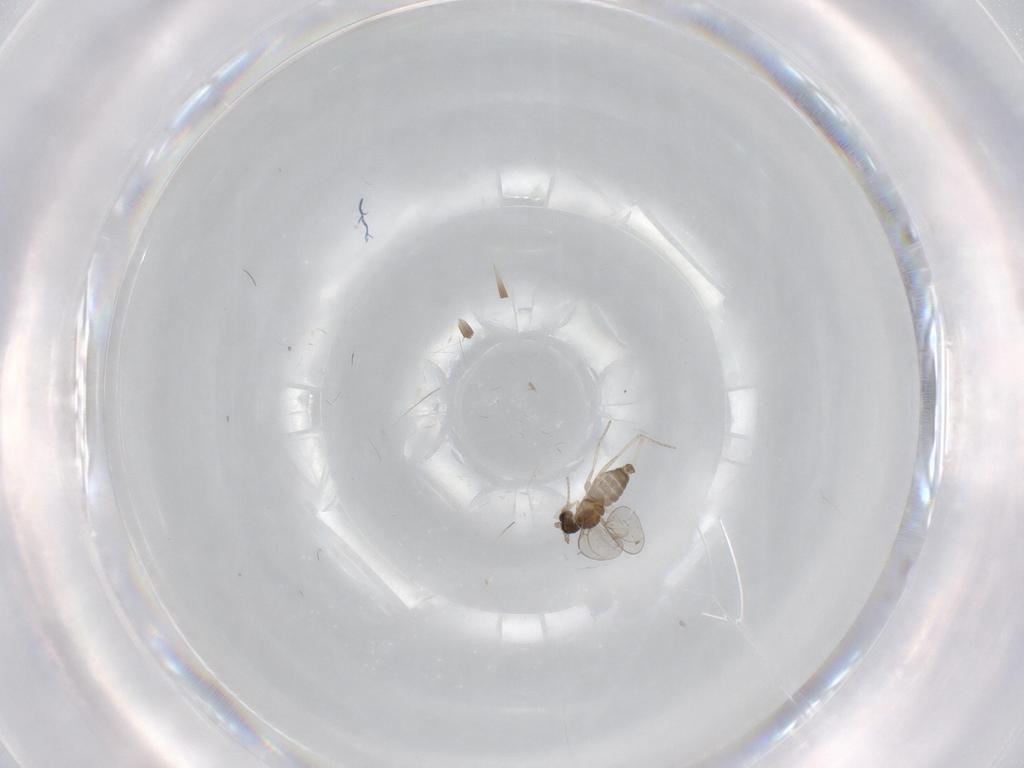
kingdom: Animalia
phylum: Arthropoda
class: Insecta
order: Diptera
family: Cecidomyiidae
